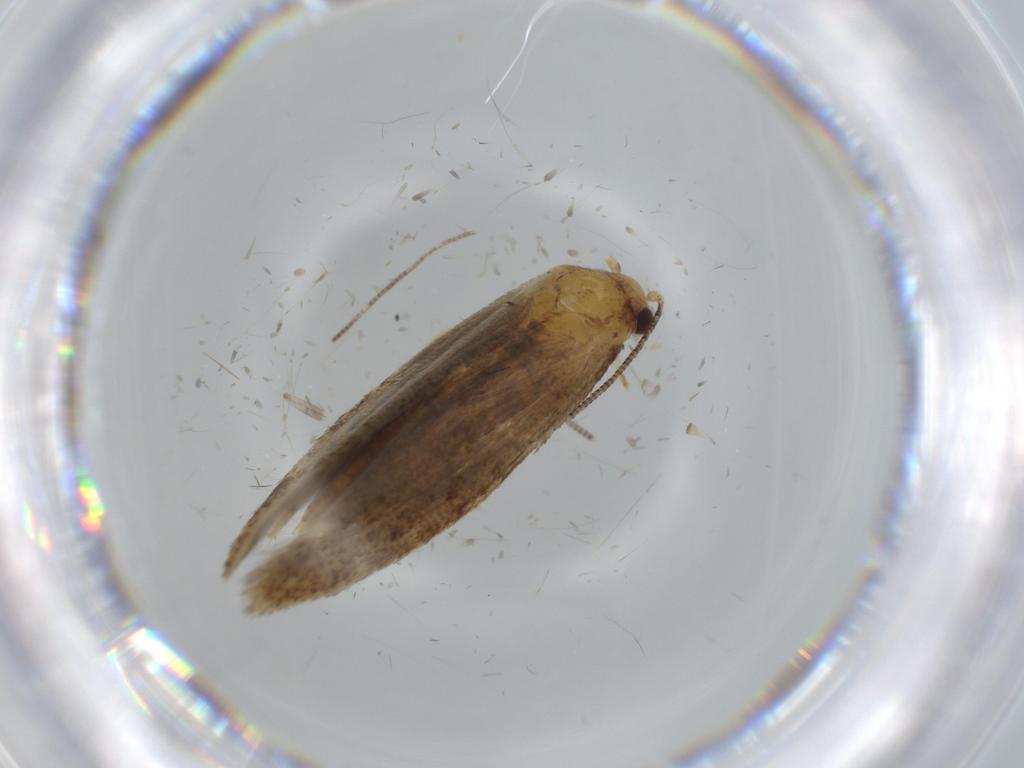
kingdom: Animalia
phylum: Arthropoda
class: Insecta
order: Lepidoptera
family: Tineidae
